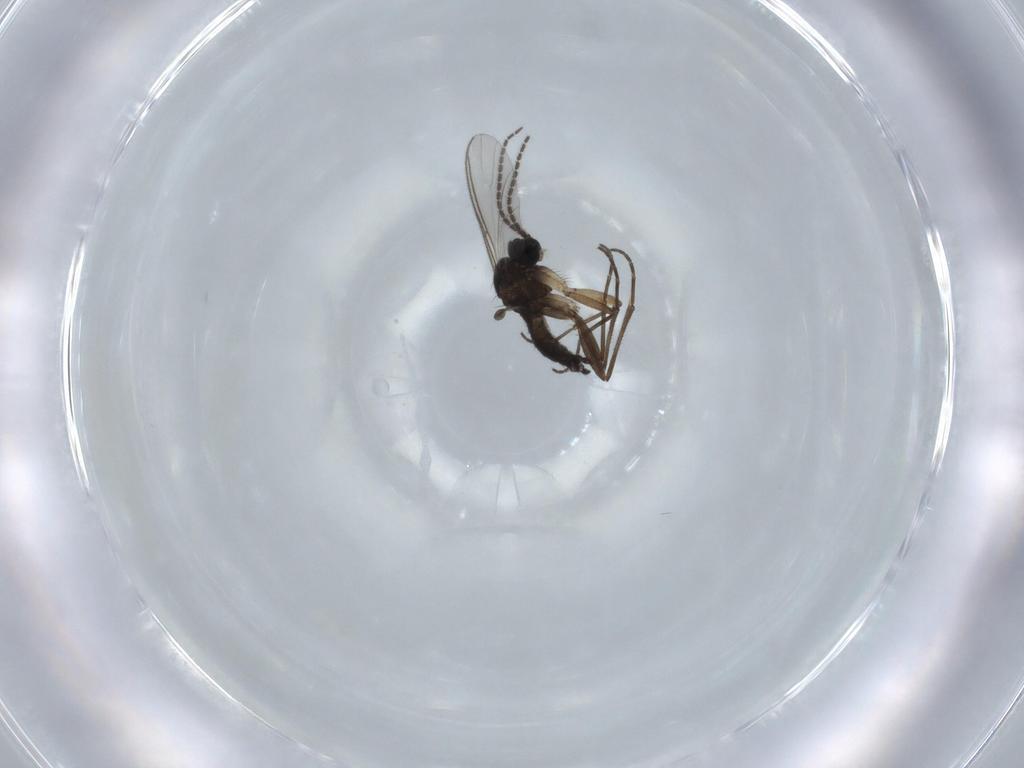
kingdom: Animalia
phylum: Arthropoda
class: Insecta
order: Diptera
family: Sciaridae
